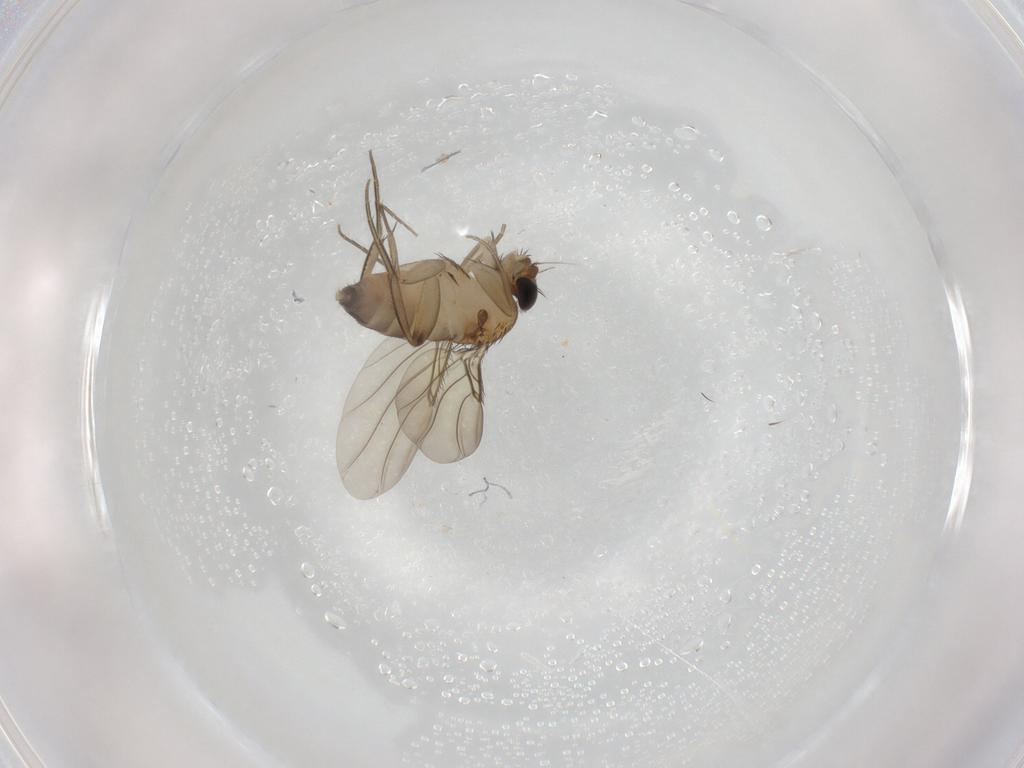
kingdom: Animalia
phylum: Arthropoda
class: Insecta
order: Diptera
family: Phoridae
